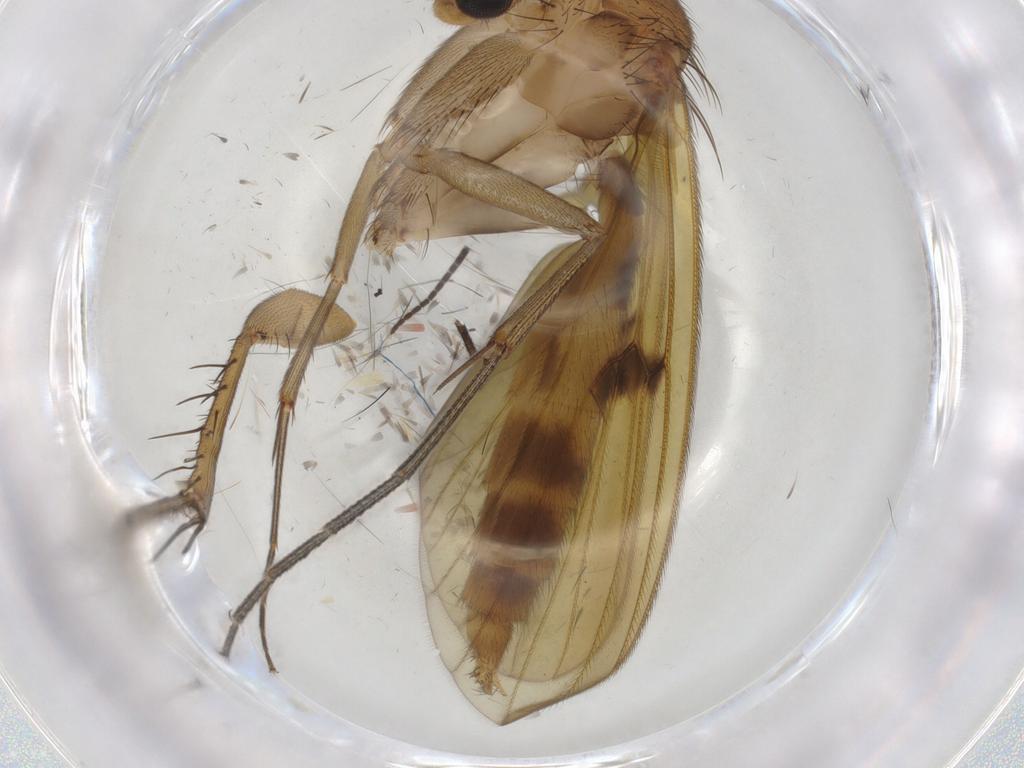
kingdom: Animalia
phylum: Arthropoda
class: Insecta
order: Diptera
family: Chloropidae
